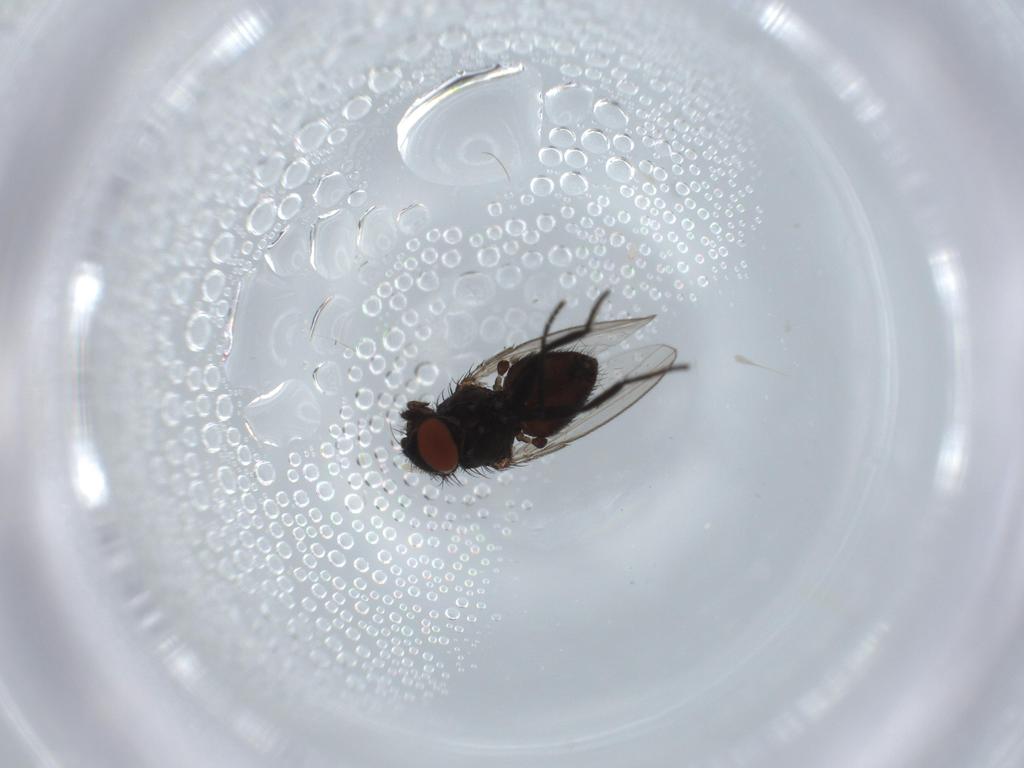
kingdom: Animalia
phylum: Arthropoda
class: Insecta
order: Diptera
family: Milichiidae
